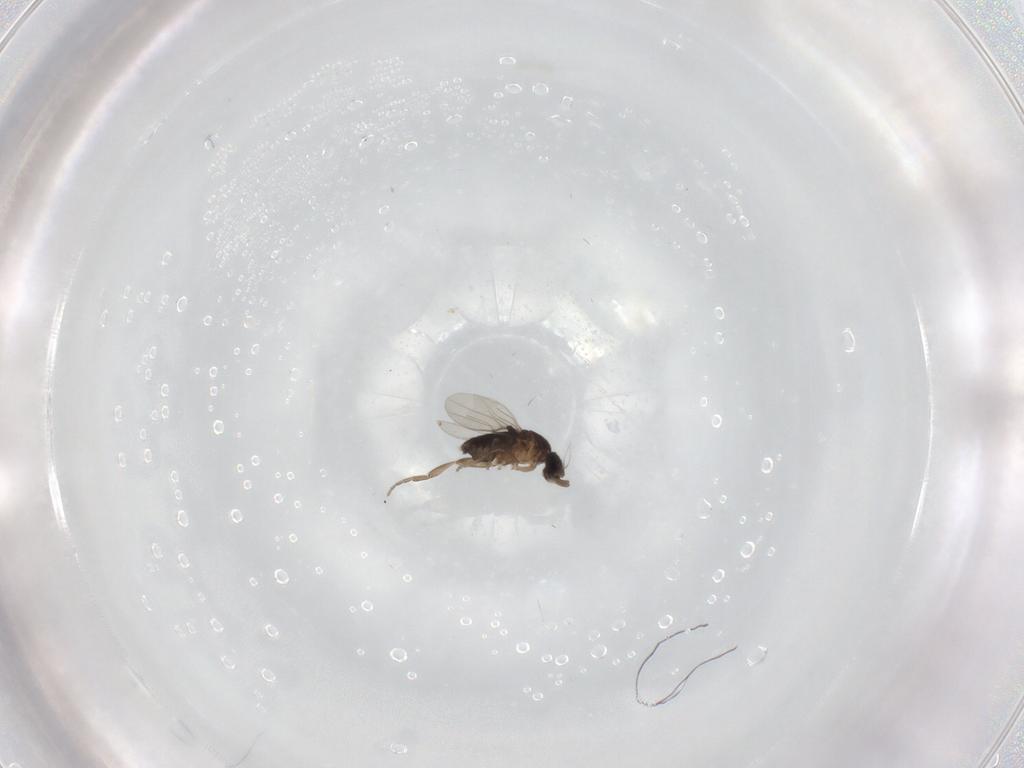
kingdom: Animalia
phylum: Arthropoda
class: Insecta
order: Diptera
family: Phoridae
